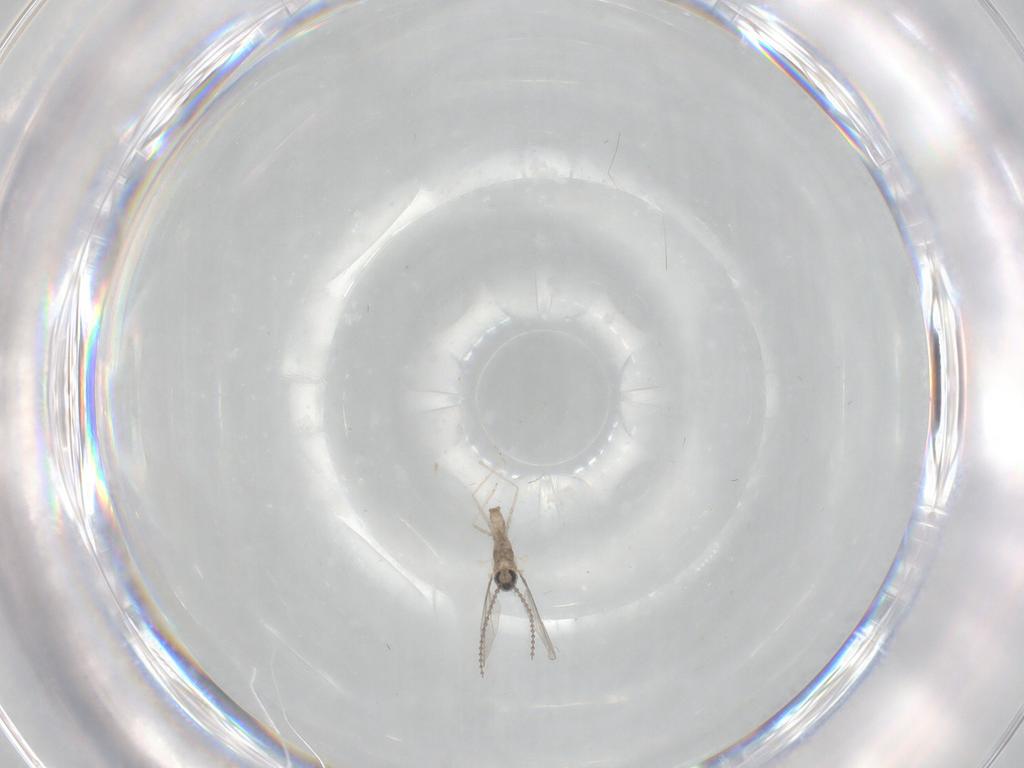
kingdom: Animalia
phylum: Arthropoda
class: Insecta
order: Diptera
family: Cecidomyiidae
